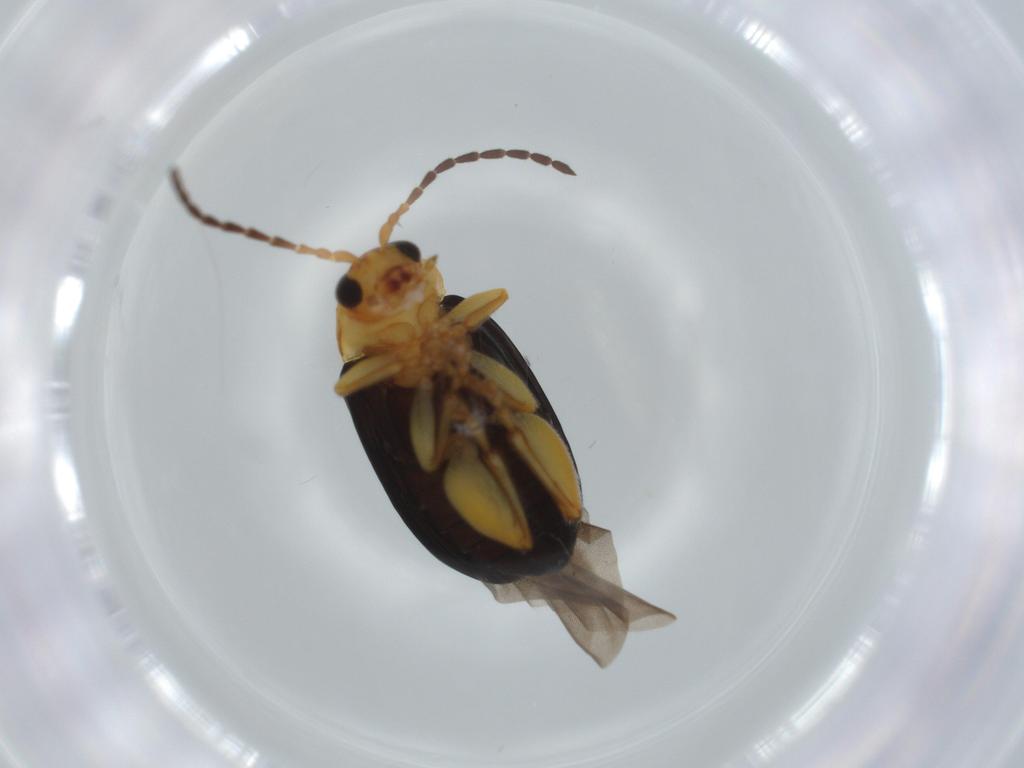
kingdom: Animalia
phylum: Arthropoda
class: Insecta
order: Coleoptera
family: Chrysomelidae
